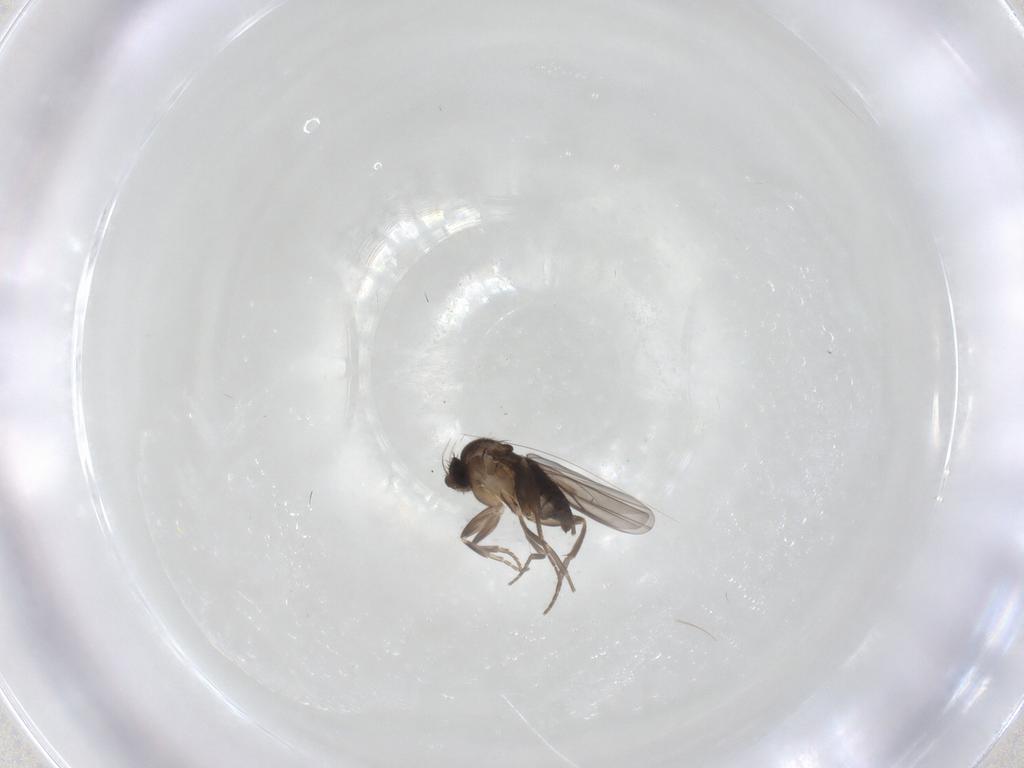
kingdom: Animalia
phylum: Arthropoda
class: Insecta
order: Diptera
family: Phoridae
